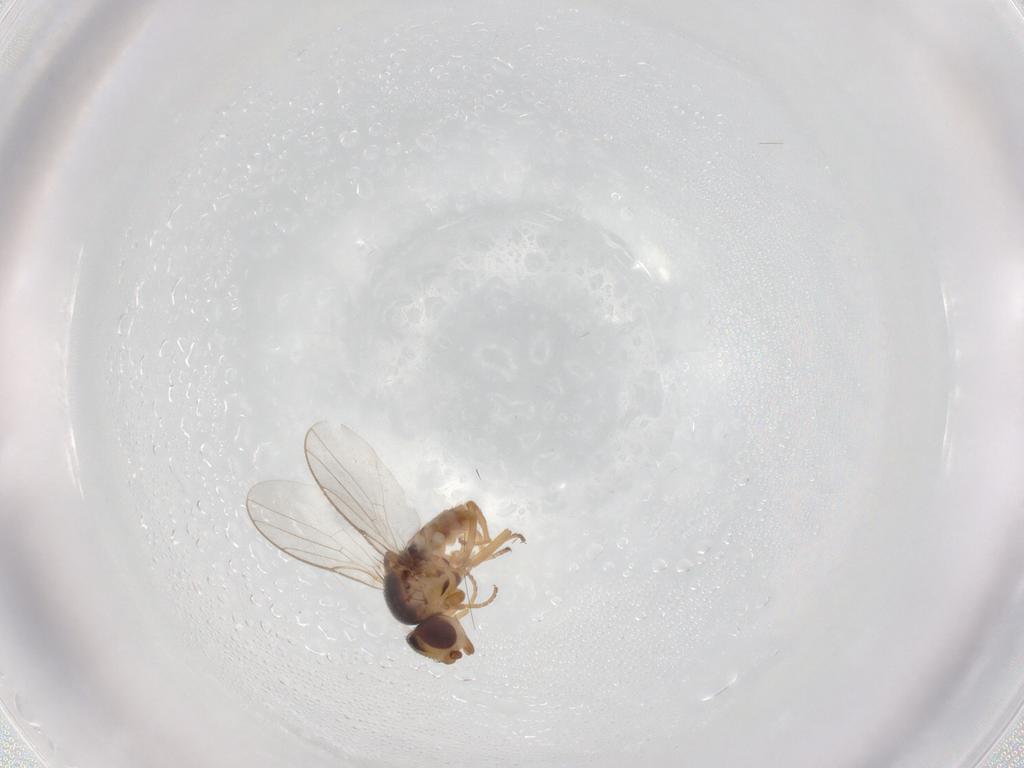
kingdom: Animalia
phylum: Arthropoda
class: Insecta
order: Diptera
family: Chloropidae
